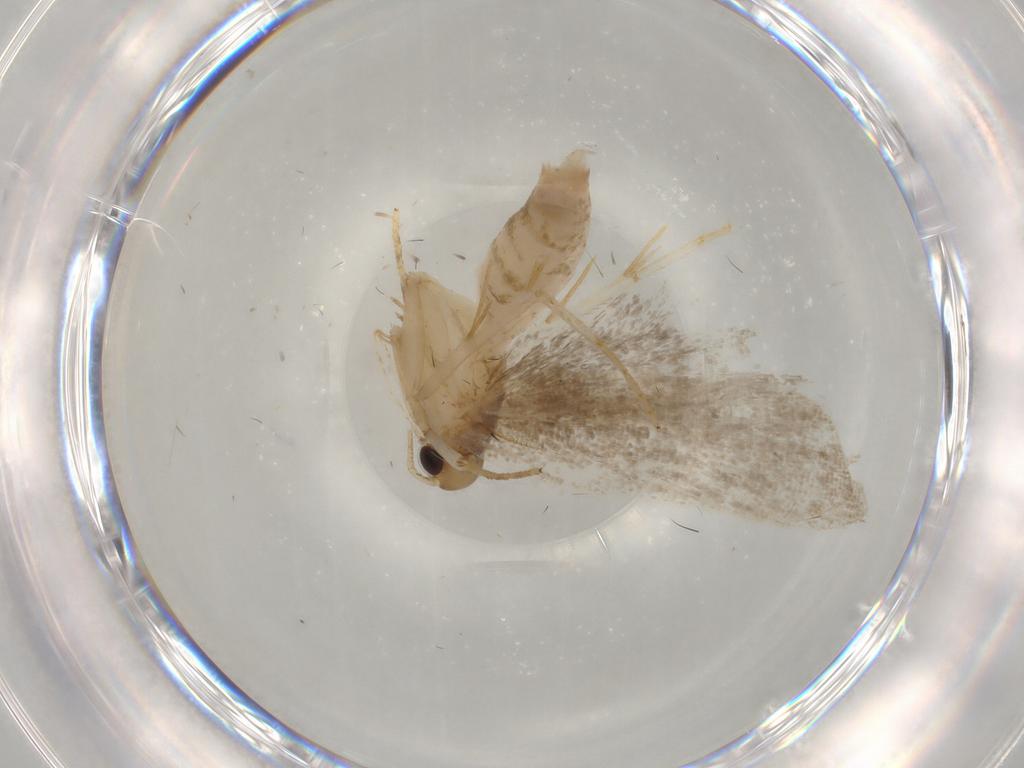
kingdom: Animalia
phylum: Arthropoda
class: Insecta
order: Lepidoptera
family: Gelechiidae
